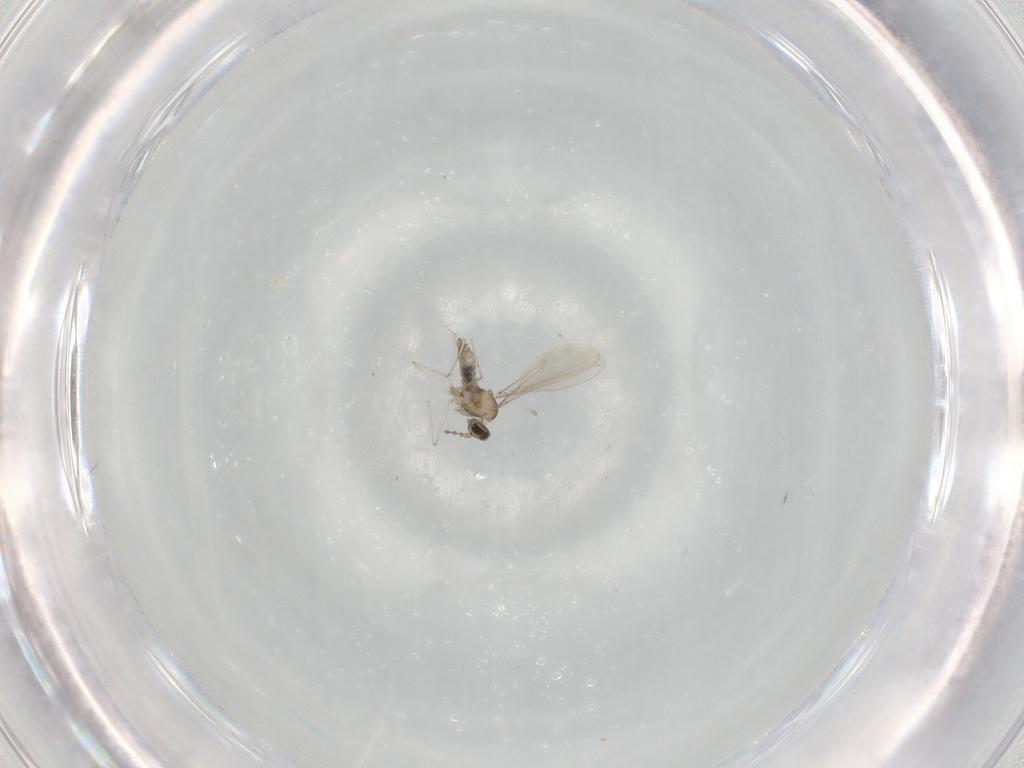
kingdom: Animalia
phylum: Arthropoda
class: Insecta
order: Diptera
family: Cecidomyiidae
